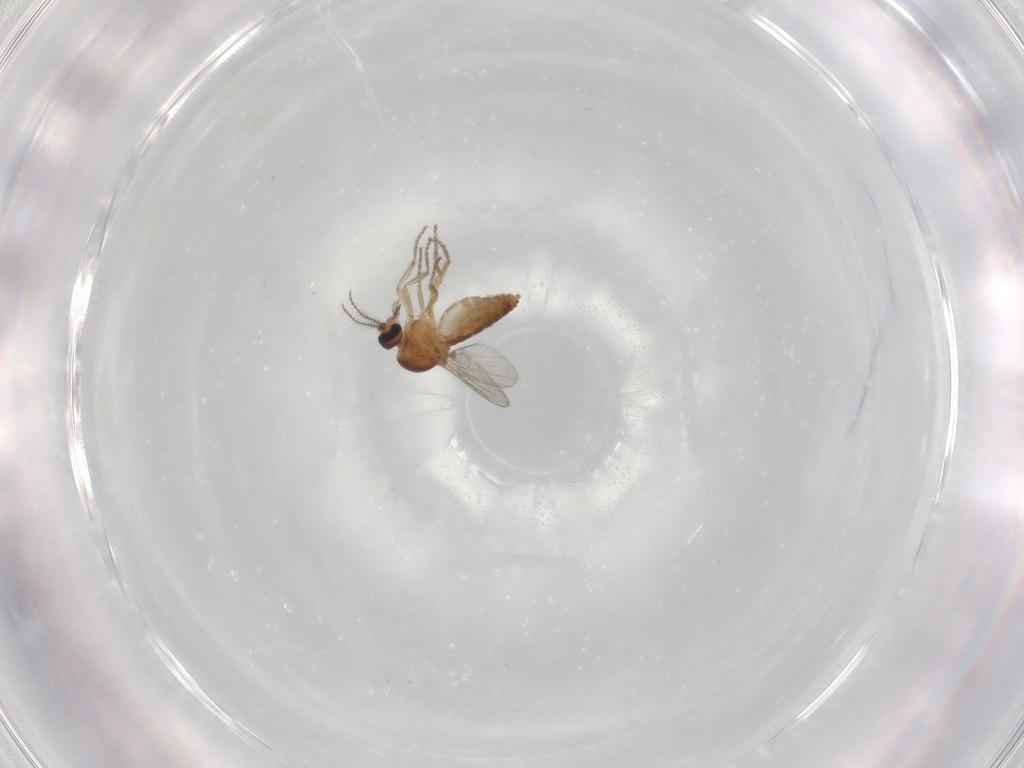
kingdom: Animalia
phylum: Arthropoda
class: Insecta
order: Diptera
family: Ceratopogonidae
